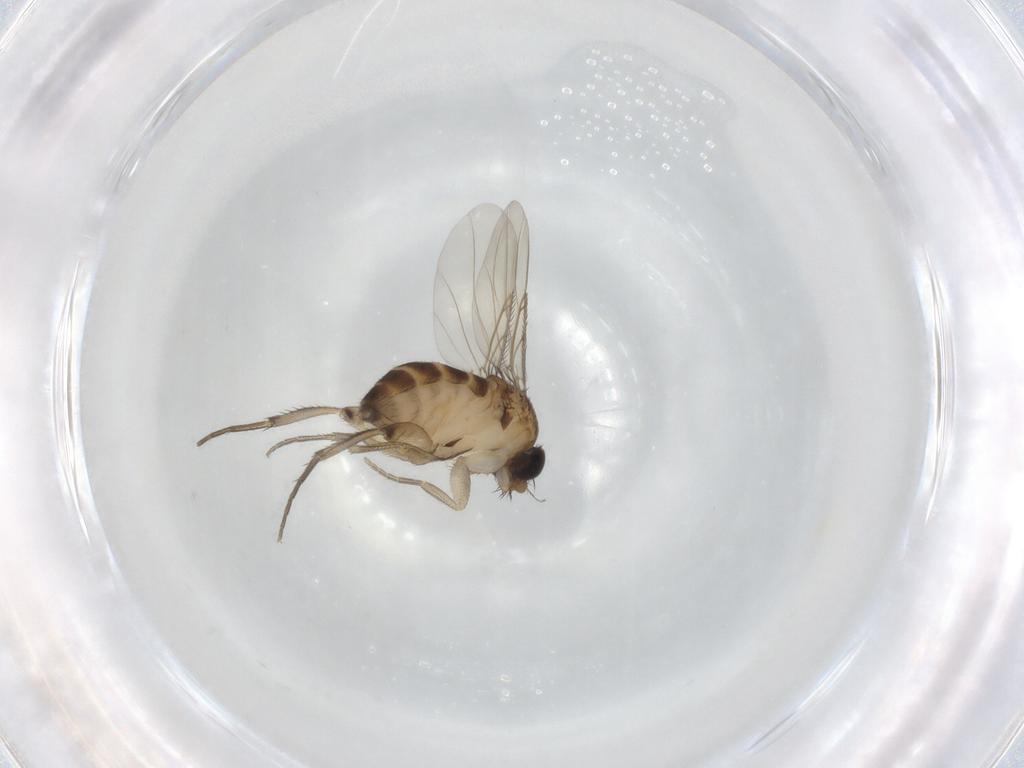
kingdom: Animalia
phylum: Arthropoda
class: Insecta
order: Diptera
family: Phoridae
